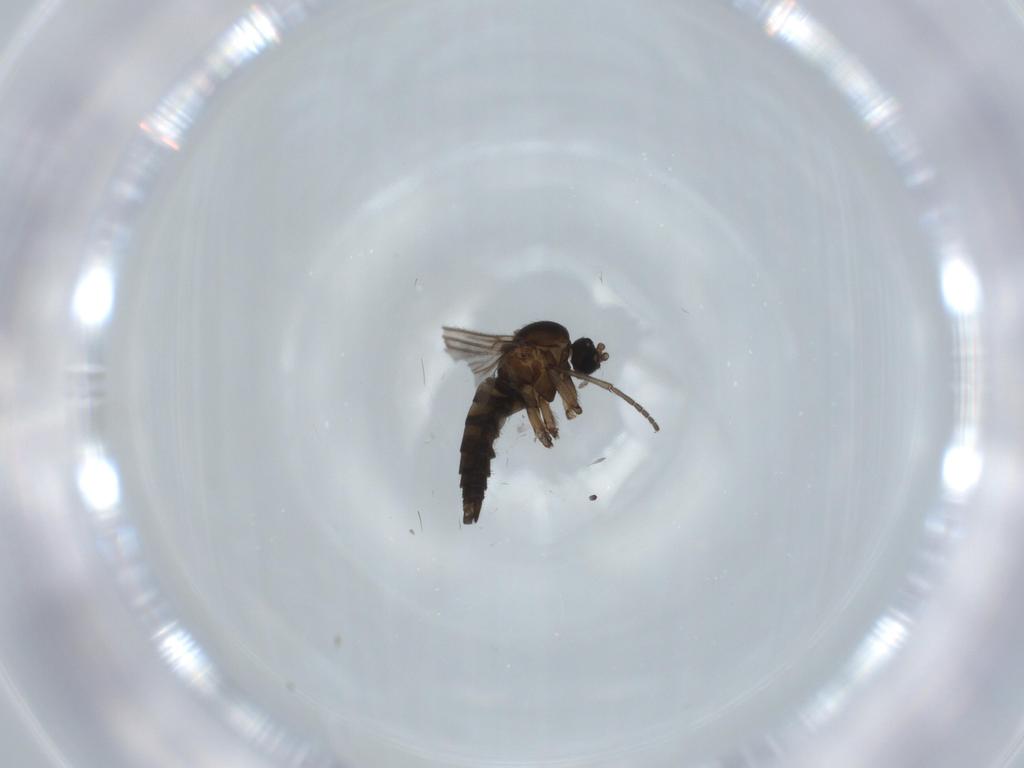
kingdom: Animalia
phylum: Arthropoda
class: Insecta
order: Diptera
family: Sciaridae
